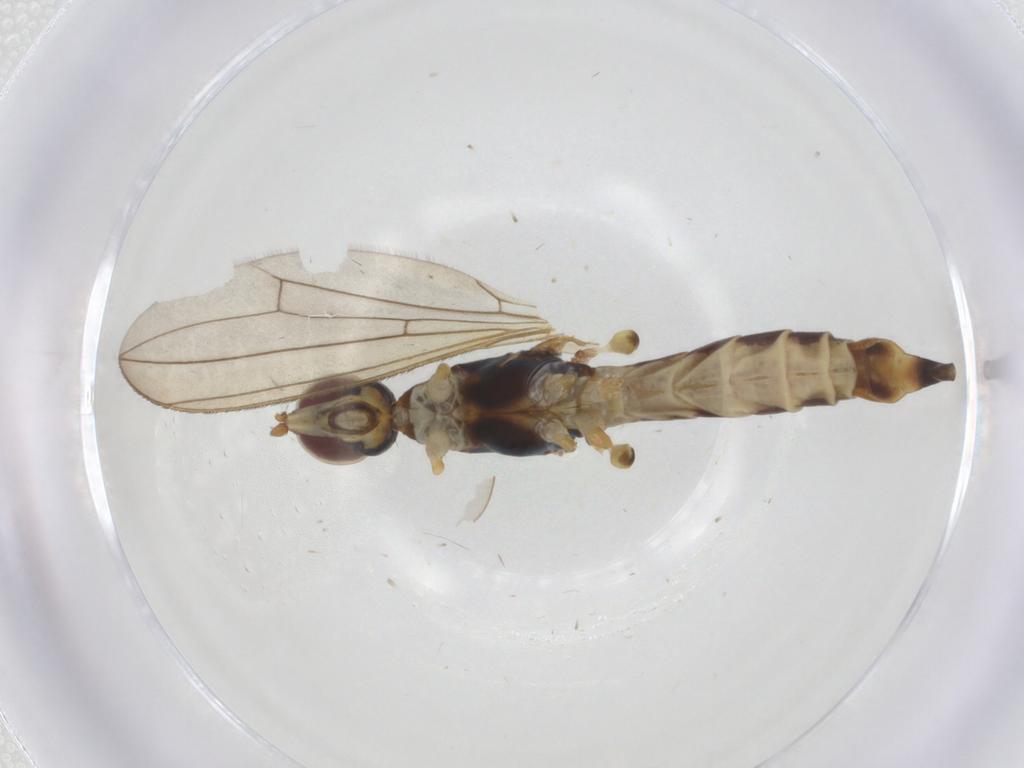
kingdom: Animalia
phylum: Arthropoda
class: Insecta
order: Diptera
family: Micropezidae
